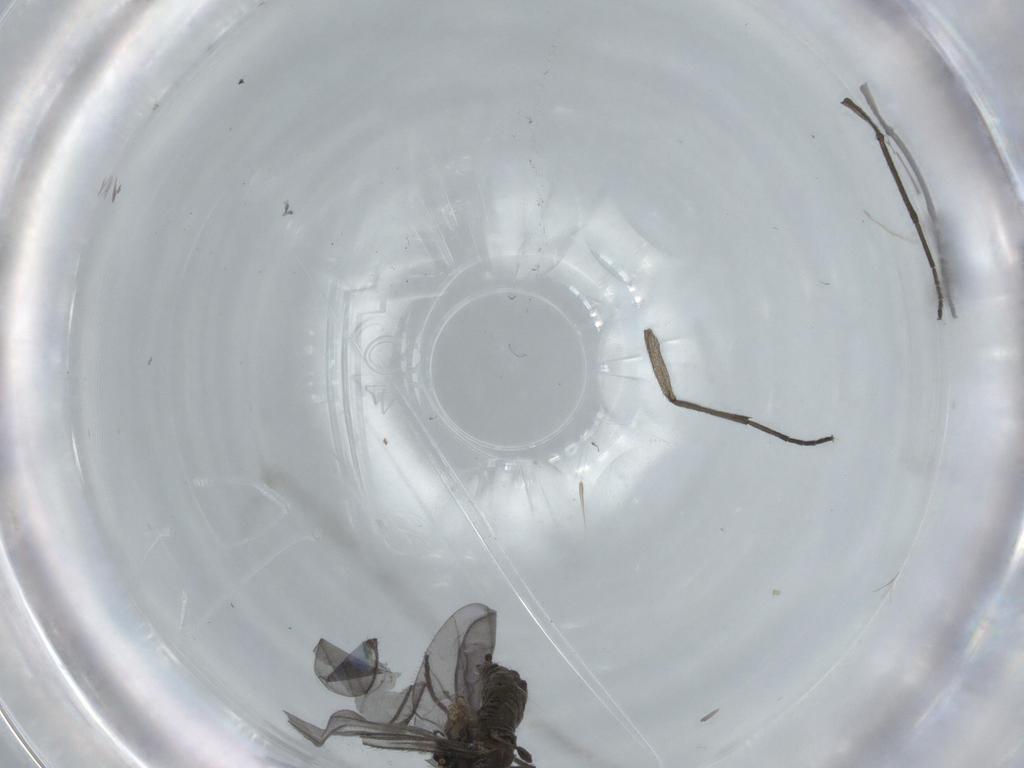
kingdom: Animalia
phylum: Arthropoda
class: Insecta
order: Diptera
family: Sciaridae
